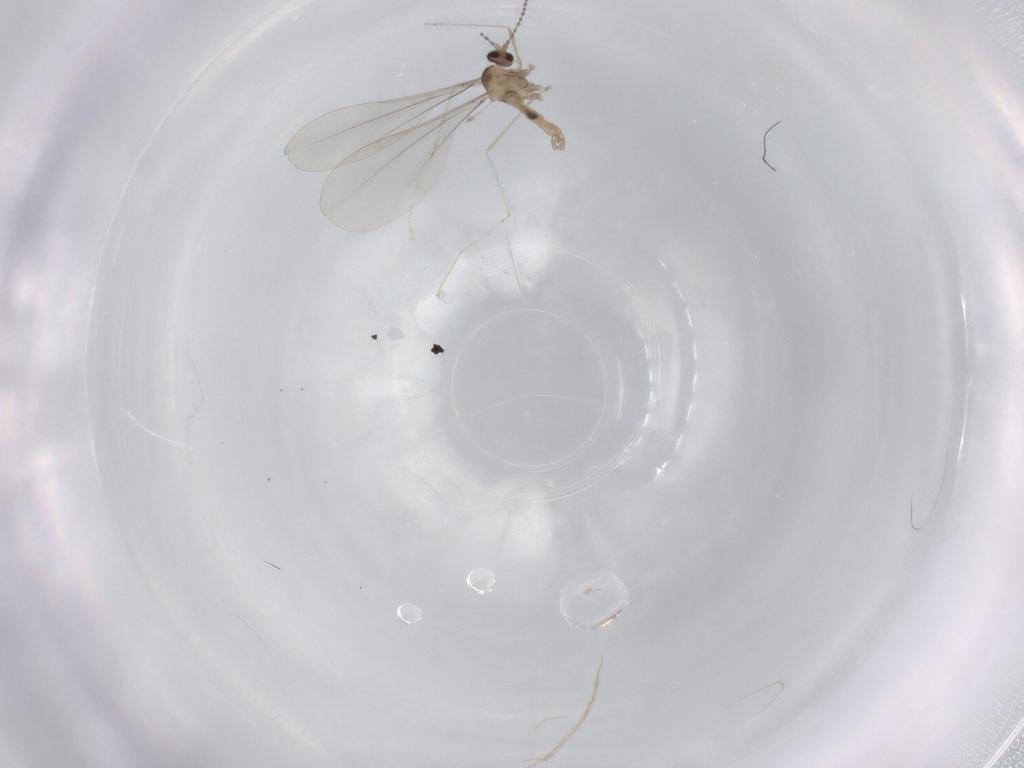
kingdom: Animalia
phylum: Arthropoda
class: Insecta
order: Diptera
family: Cecidomyiidae
